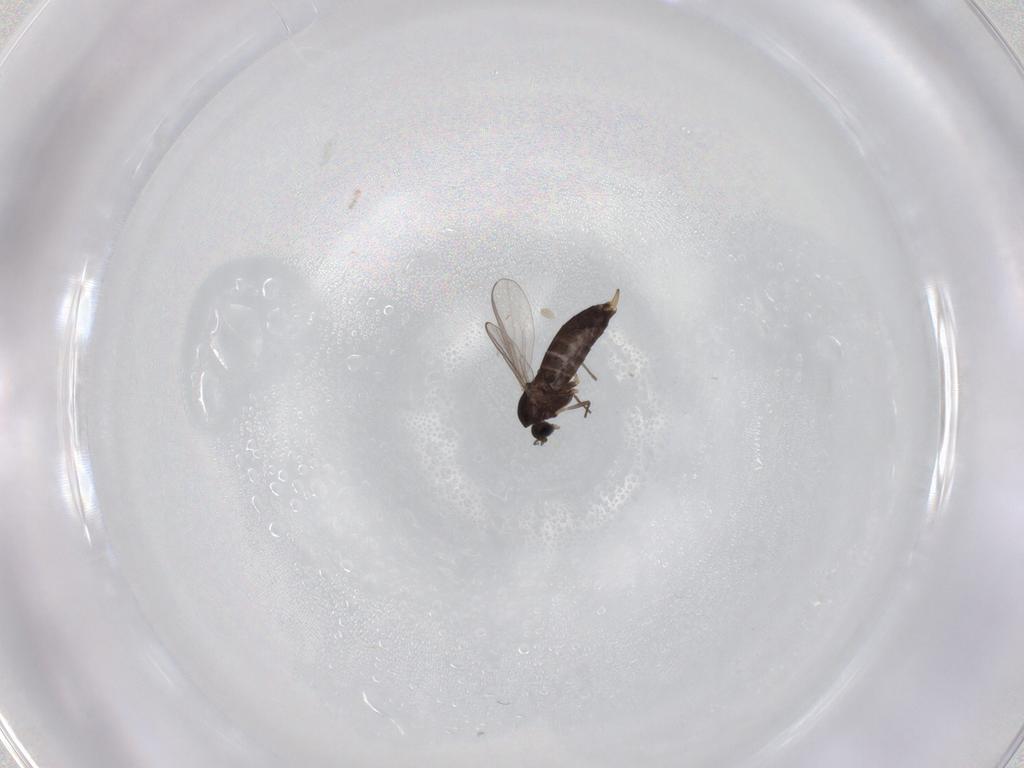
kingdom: Animalia
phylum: Arthropoda
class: Insecta
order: Diptera
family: Chironomidae
